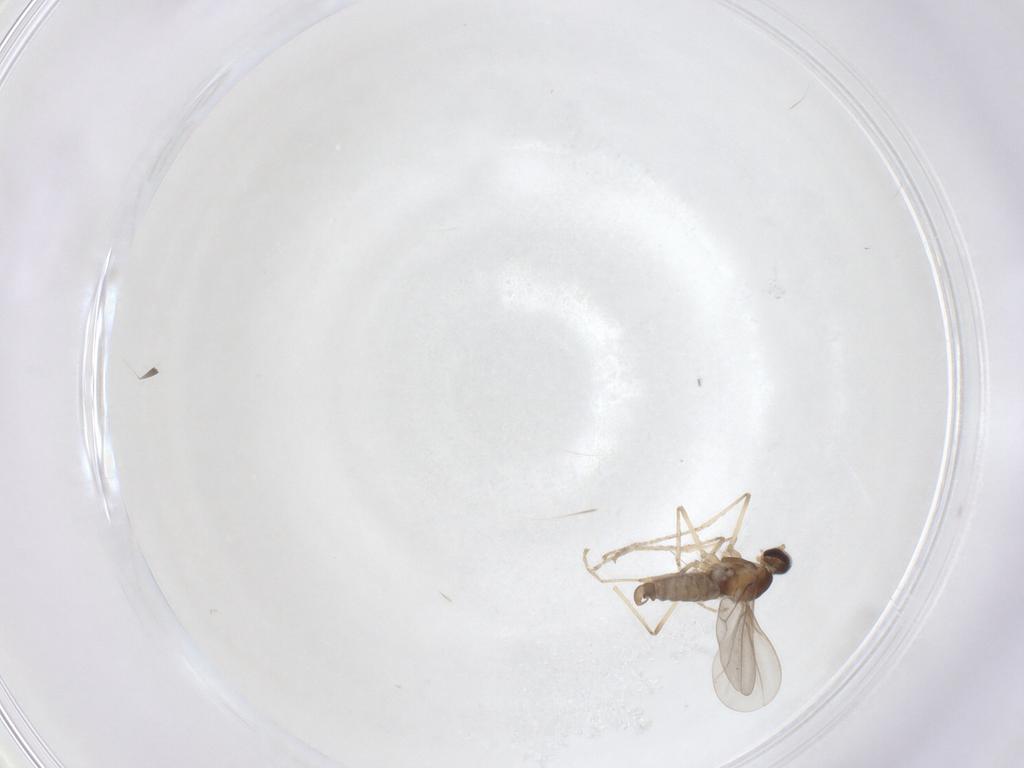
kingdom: Animalia
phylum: Arthropoda
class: Insecta
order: Diptera
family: Cecidomyiidae
